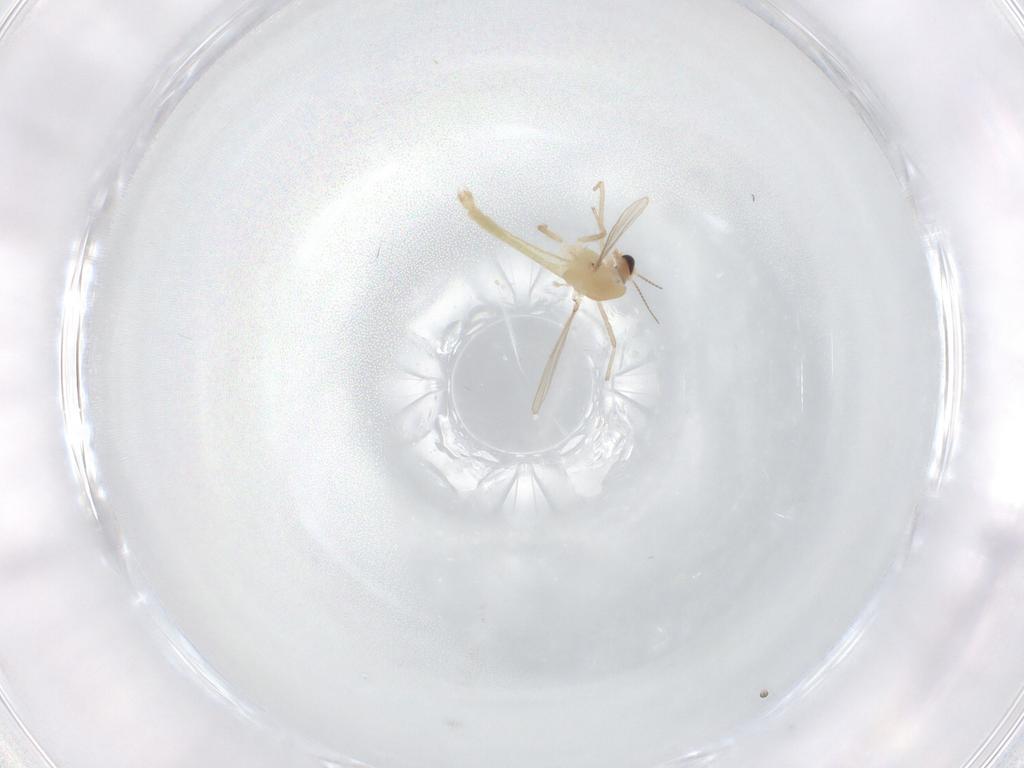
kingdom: Animalia
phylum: Arthropoda
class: Insecta
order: Diptera
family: Chironomidae
